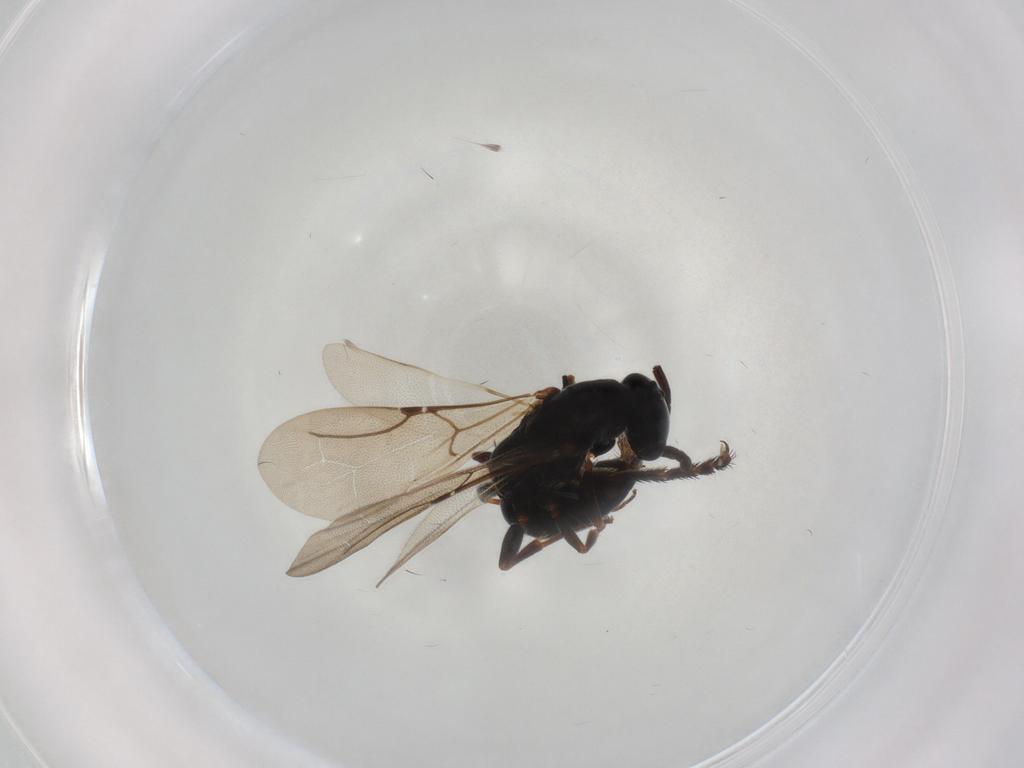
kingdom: Animalia
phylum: Arthropoda
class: Insecta
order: Hymenoptera
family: Bethylidae
